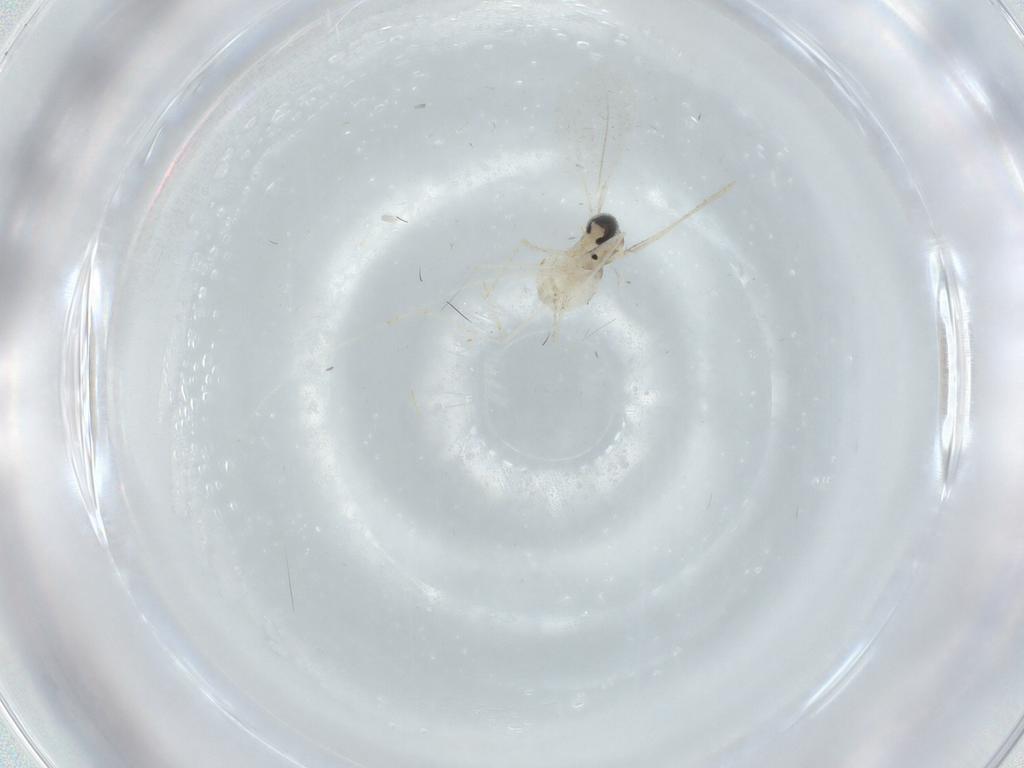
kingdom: Animalia
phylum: Arthropoda
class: Insecta
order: Diptera
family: Cecidomyiidae
